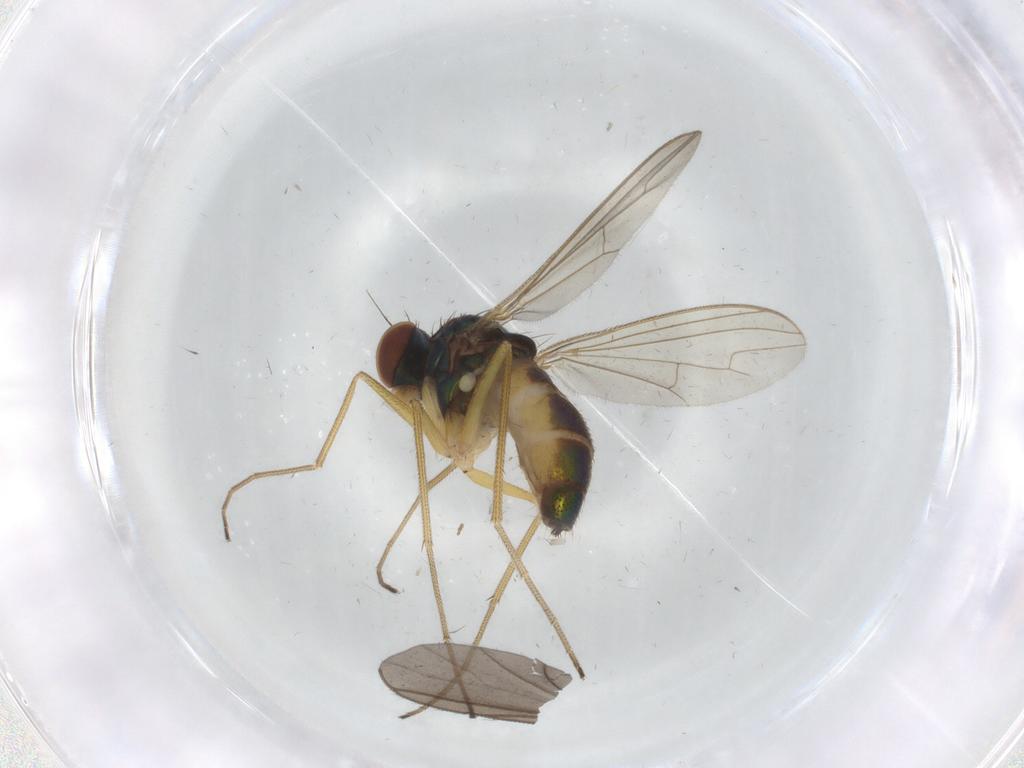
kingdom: Animalia
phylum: Arthropoda
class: Insecta
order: Diptera
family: Dolichopodidae
